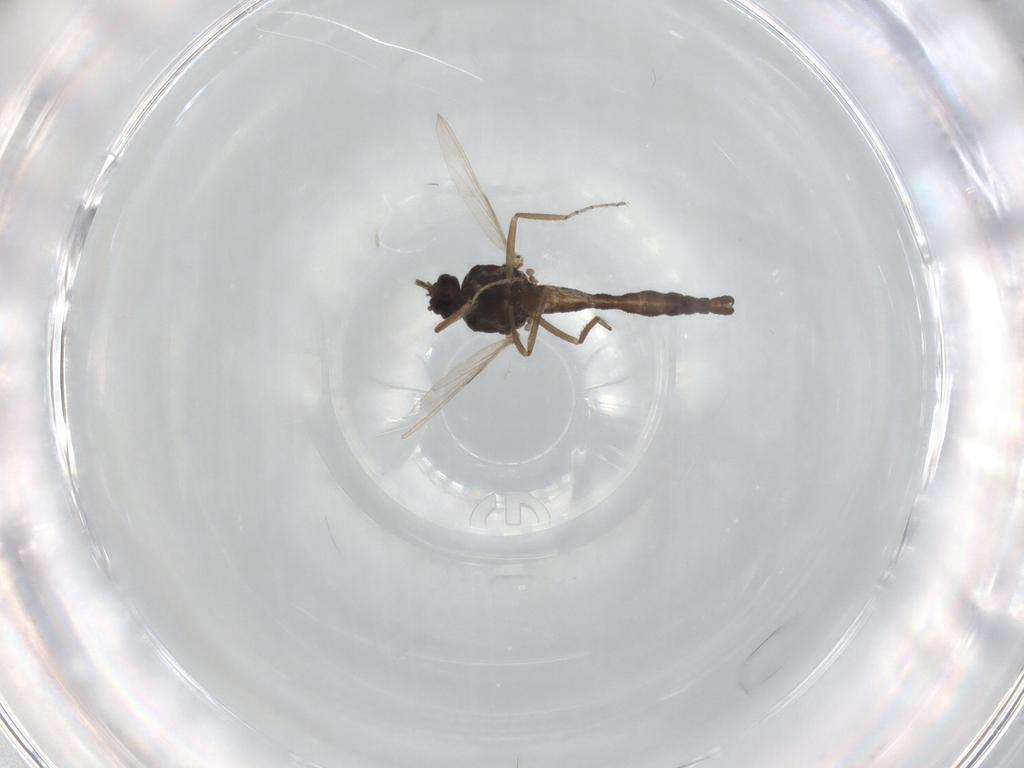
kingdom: Animalia
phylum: Arthropoda
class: Insecta
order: Diptera
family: Ceratopogonidae
